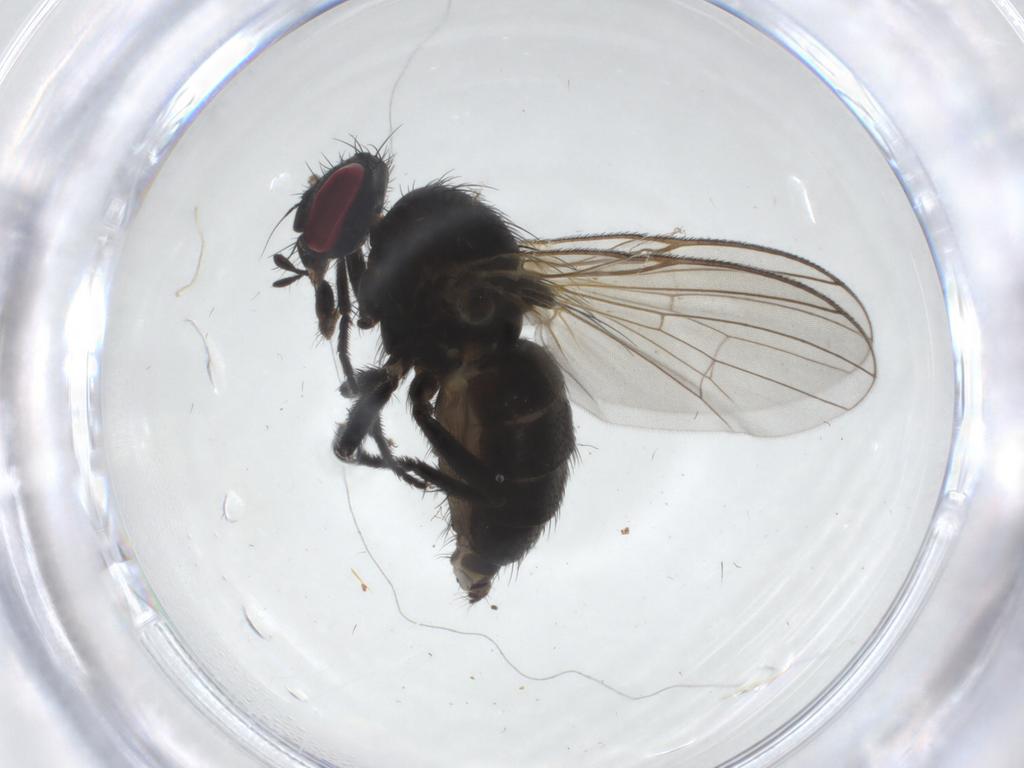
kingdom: Animalia
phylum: Arthropoda
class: Insecta
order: Diptera
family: Fannia
